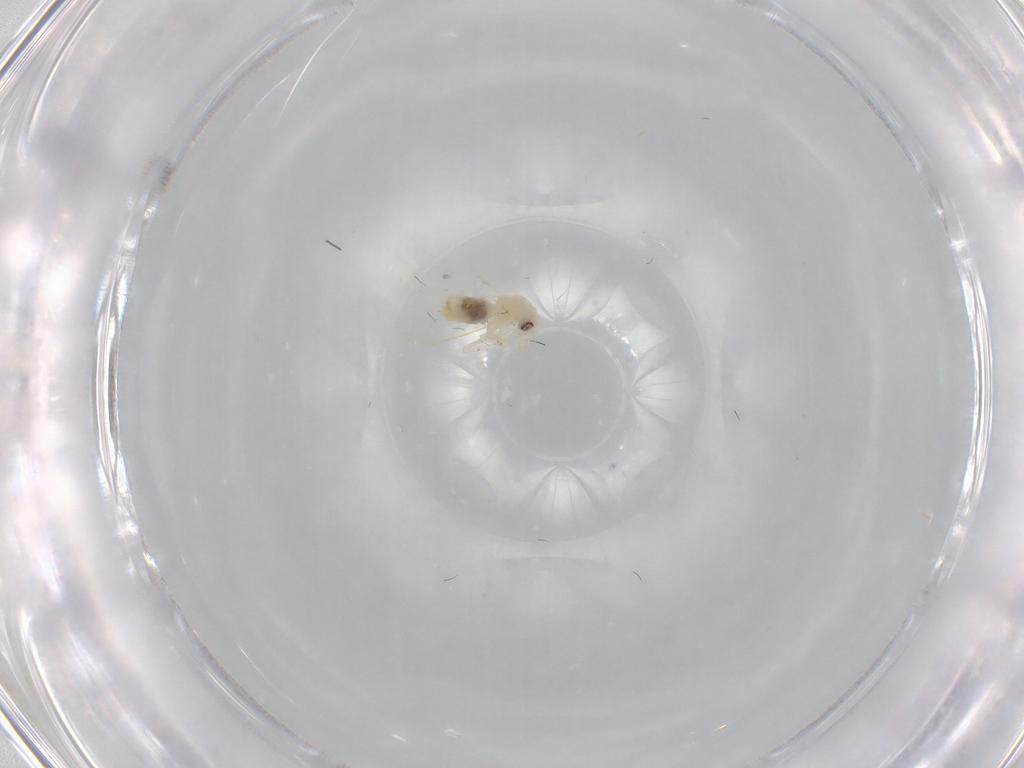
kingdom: Animalia
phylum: Arthropoda
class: Insecta
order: Hemiptera
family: Aleyrodidae
